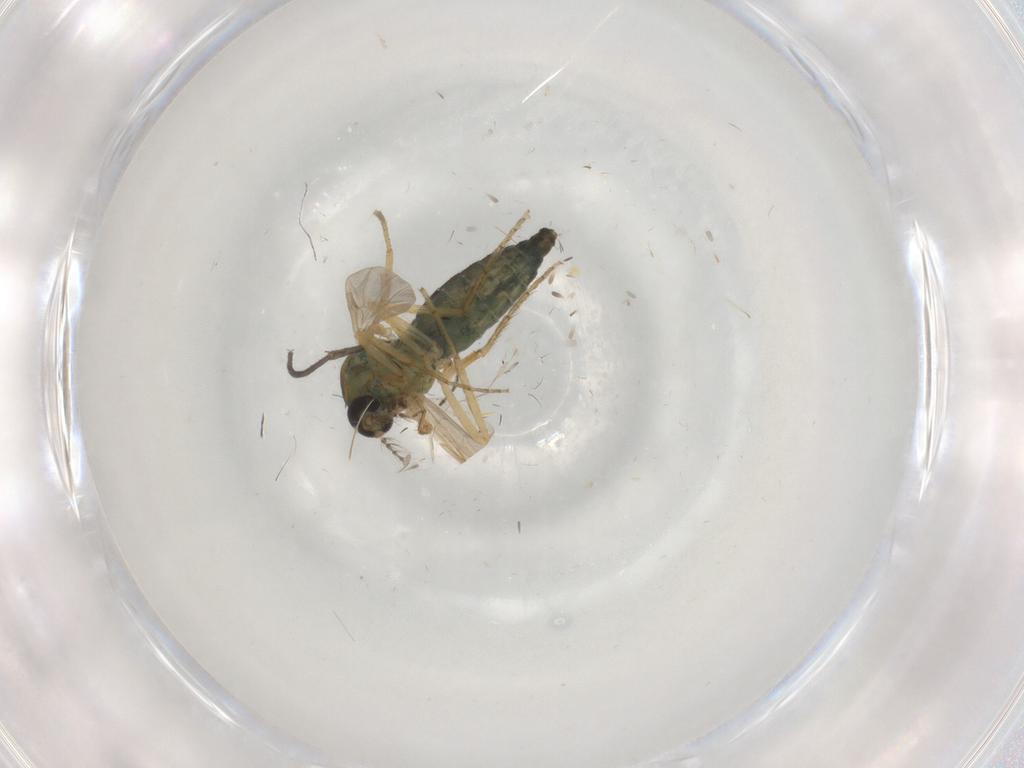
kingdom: Animalia
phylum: Arthropoda
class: Insecta
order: Diptera
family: Ceratopogonidae
